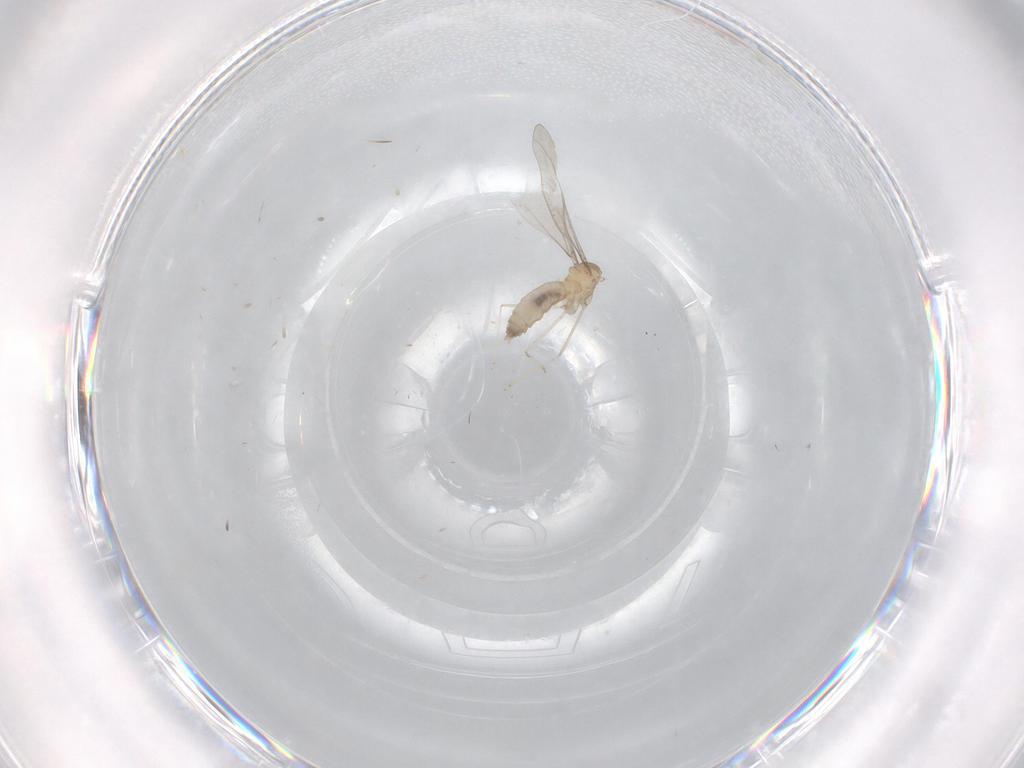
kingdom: Animalia
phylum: Arthropoda
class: Insecta
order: Diptera
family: Cecidomyiidae
